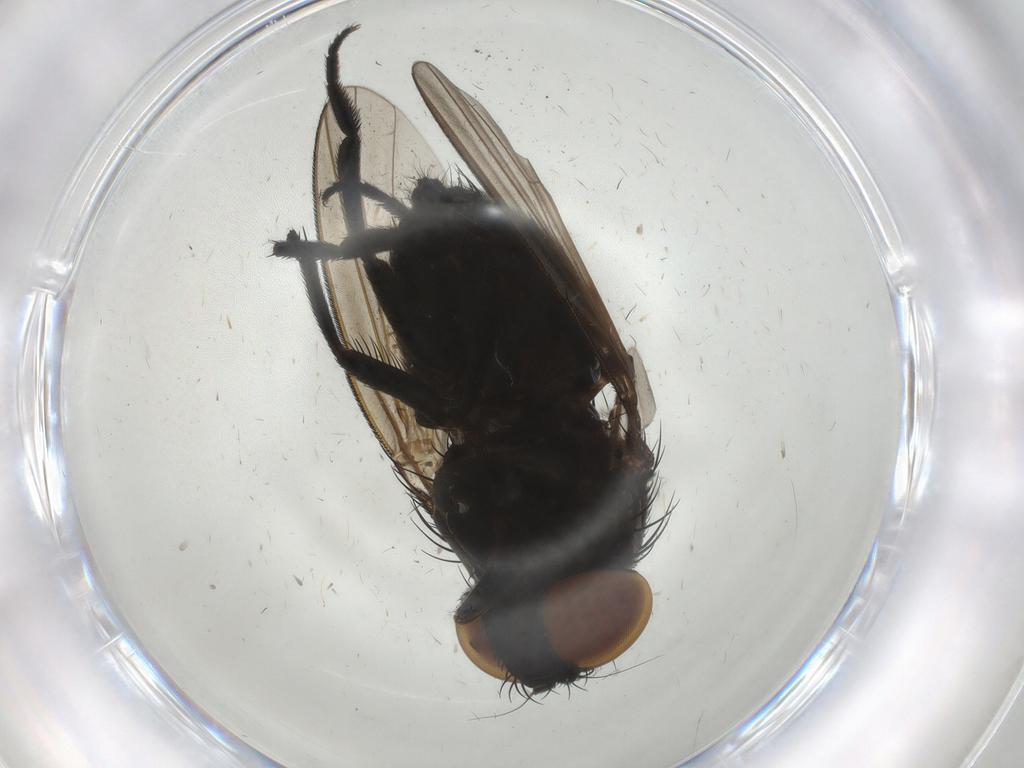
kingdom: Animalia
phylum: Arthropoda
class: Insecta
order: Diptera
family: Milichiidae
